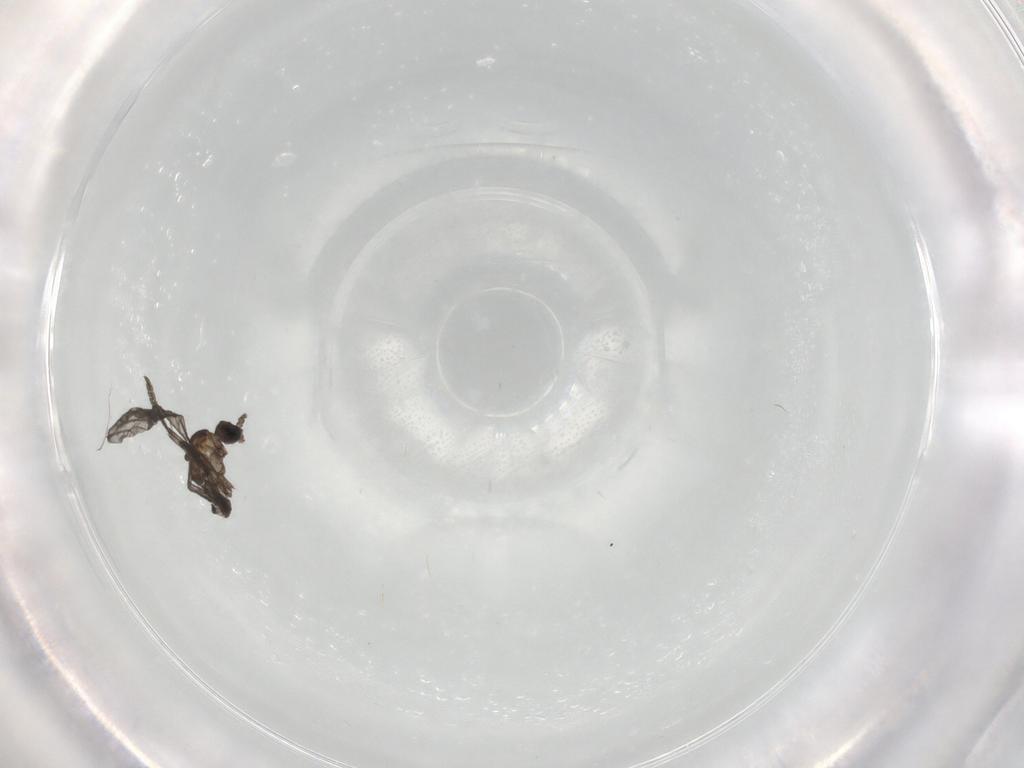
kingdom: Animalia
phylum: Arthropoda
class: Insecta
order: Diptera
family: Sciaridae
